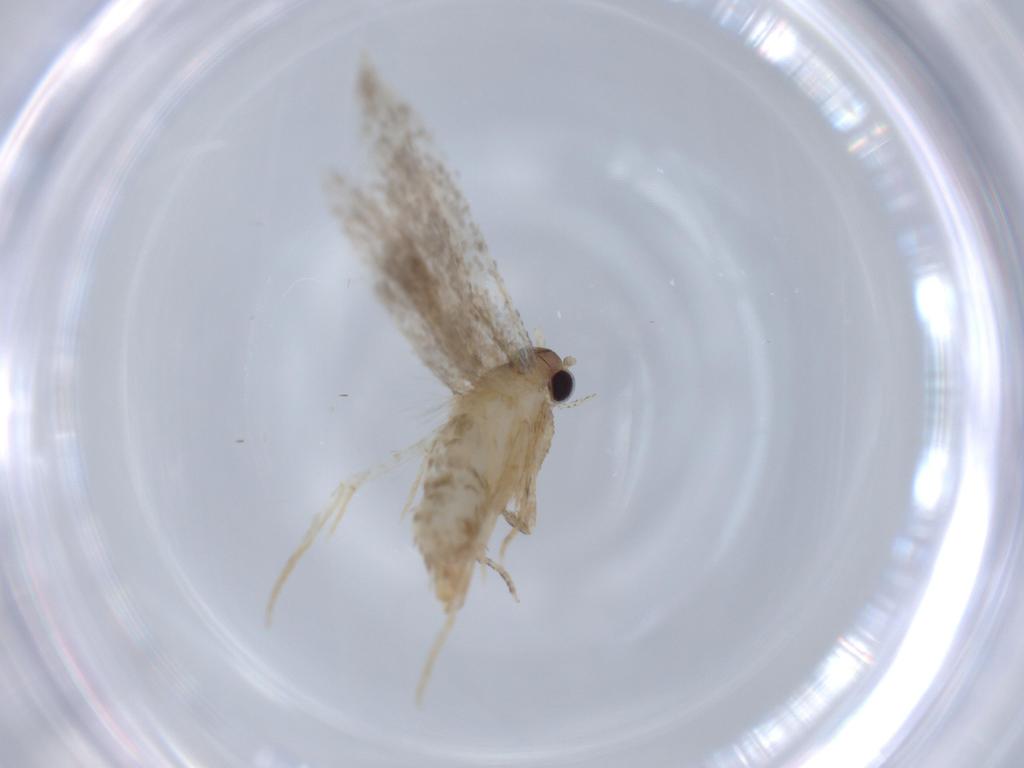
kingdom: Animalia
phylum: Arthropoda
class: Insecta
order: Lepidoptera
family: Tineidae
